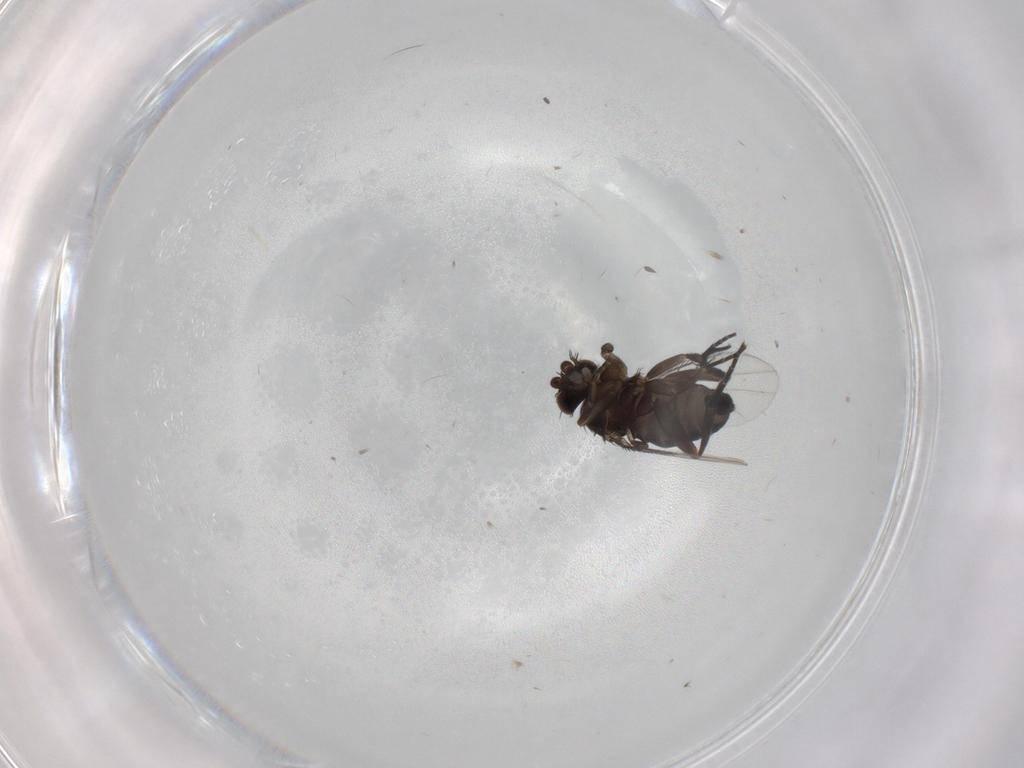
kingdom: Animalia
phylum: Arthropoda
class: Insecta
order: Diptera
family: Phoridae
